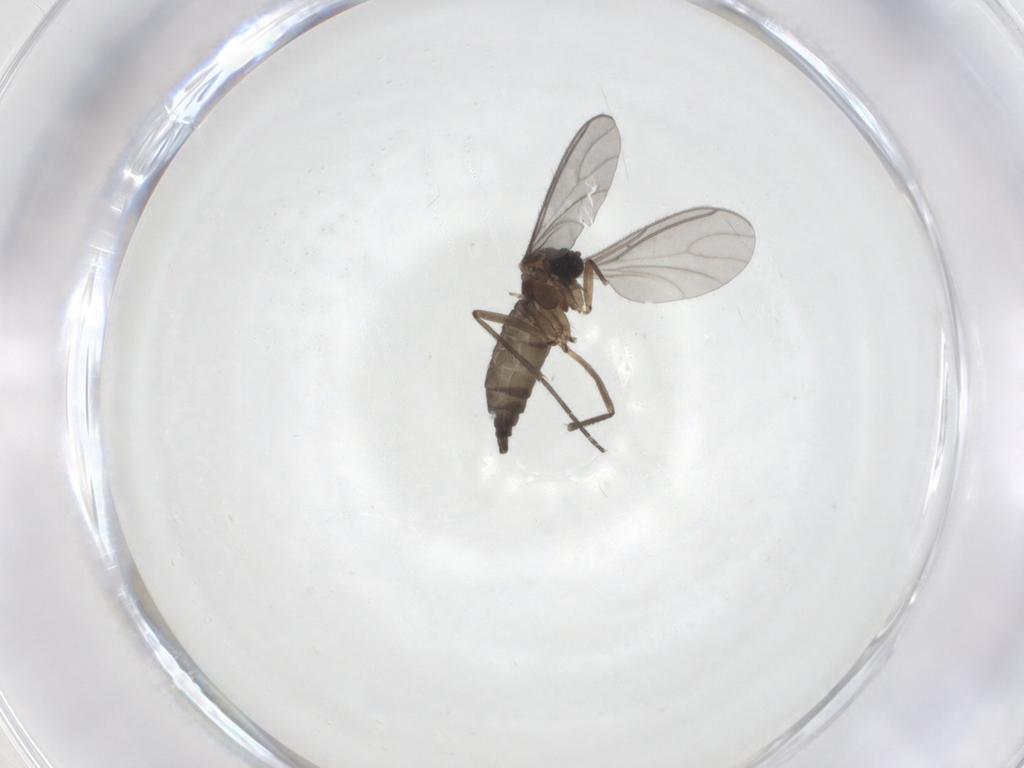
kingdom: Animalia
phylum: Arthropoda
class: Insecta
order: Diptera
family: Cecidomyiidae
